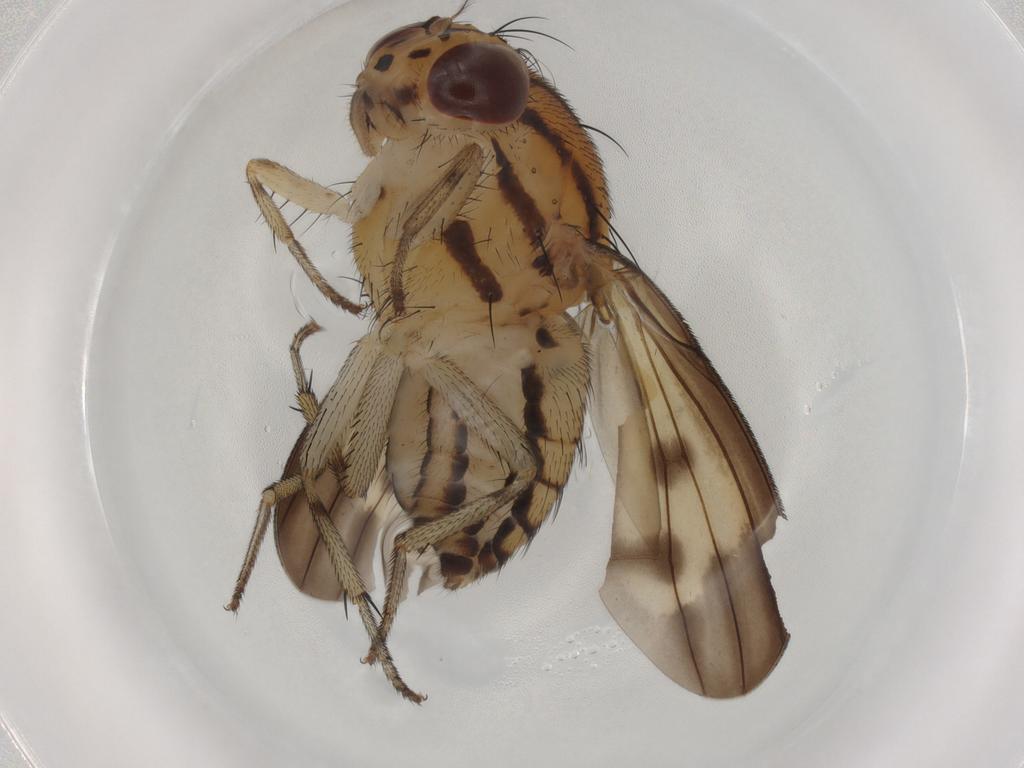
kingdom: Animalia
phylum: Arthropoda
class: Insecta
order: Diptera
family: Lauxaniidae
